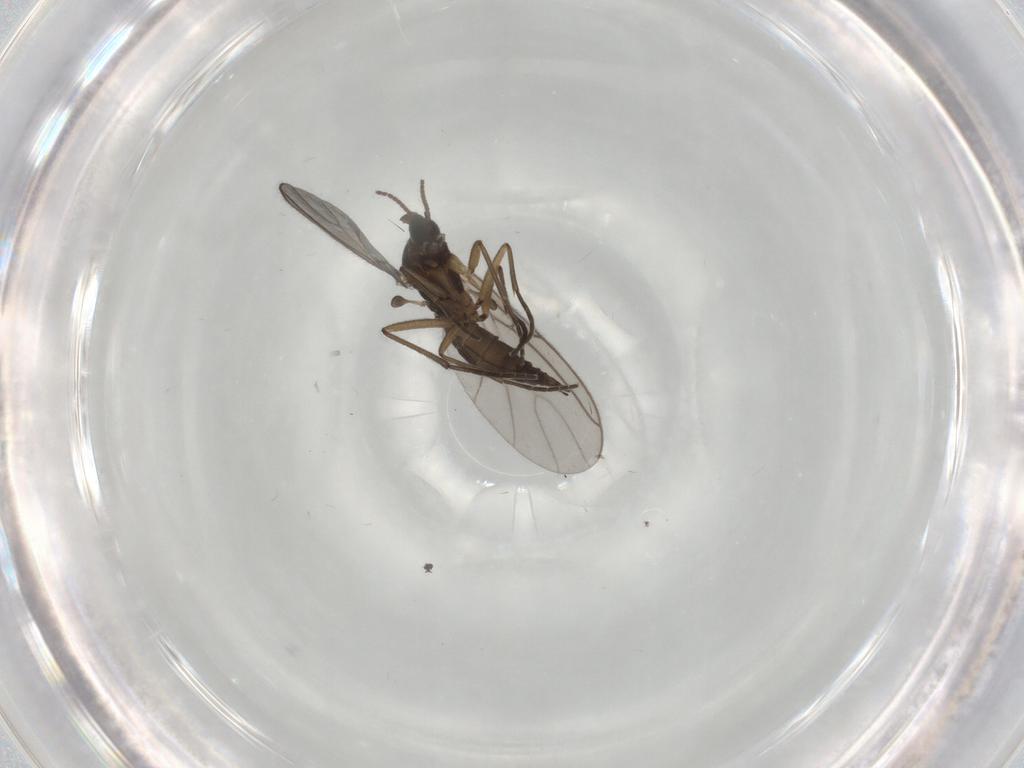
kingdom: Animalia
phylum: Arthropoda
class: Insecta
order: Diptera
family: Sciaridae
